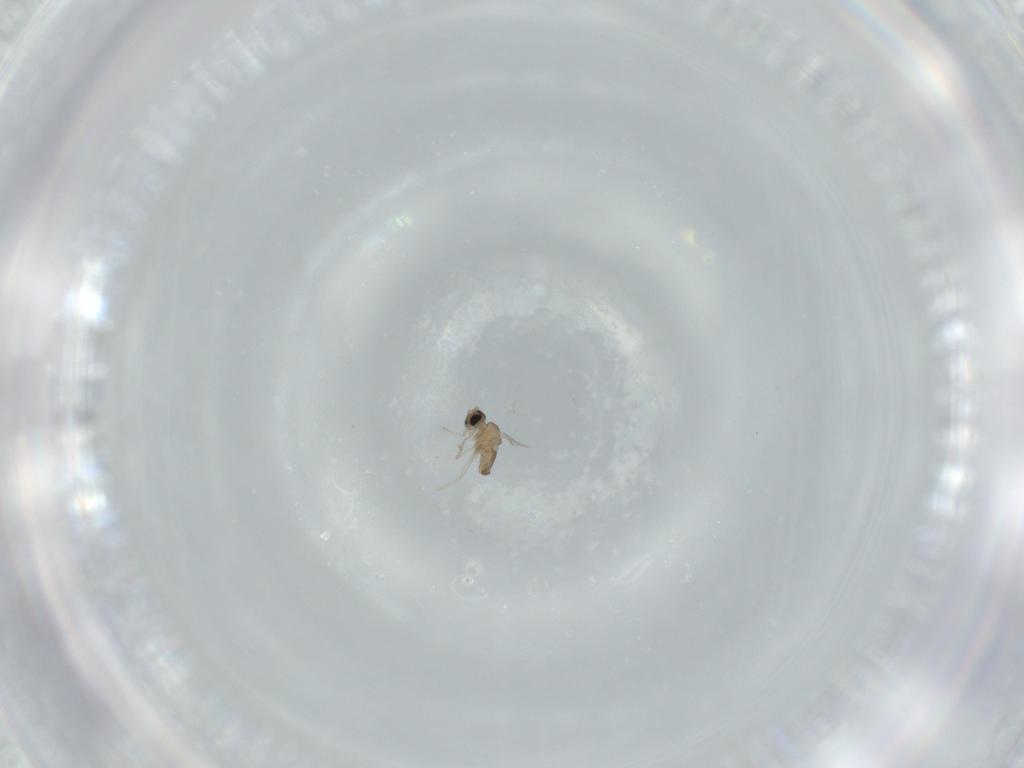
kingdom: Animalia
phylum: Arthropoda
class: Insecta
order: Diptera
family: Cecidomyiidae
